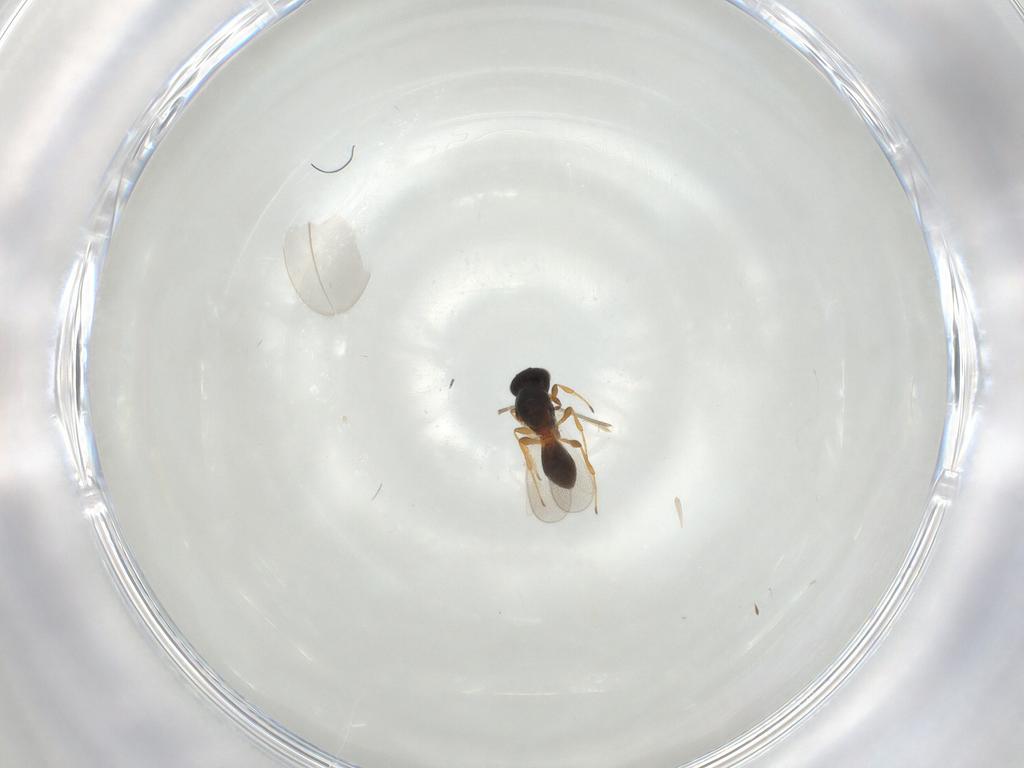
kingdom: Animalia
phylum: Arthropoda
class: Insecta
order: Hymenoptera
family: Platygastridae
